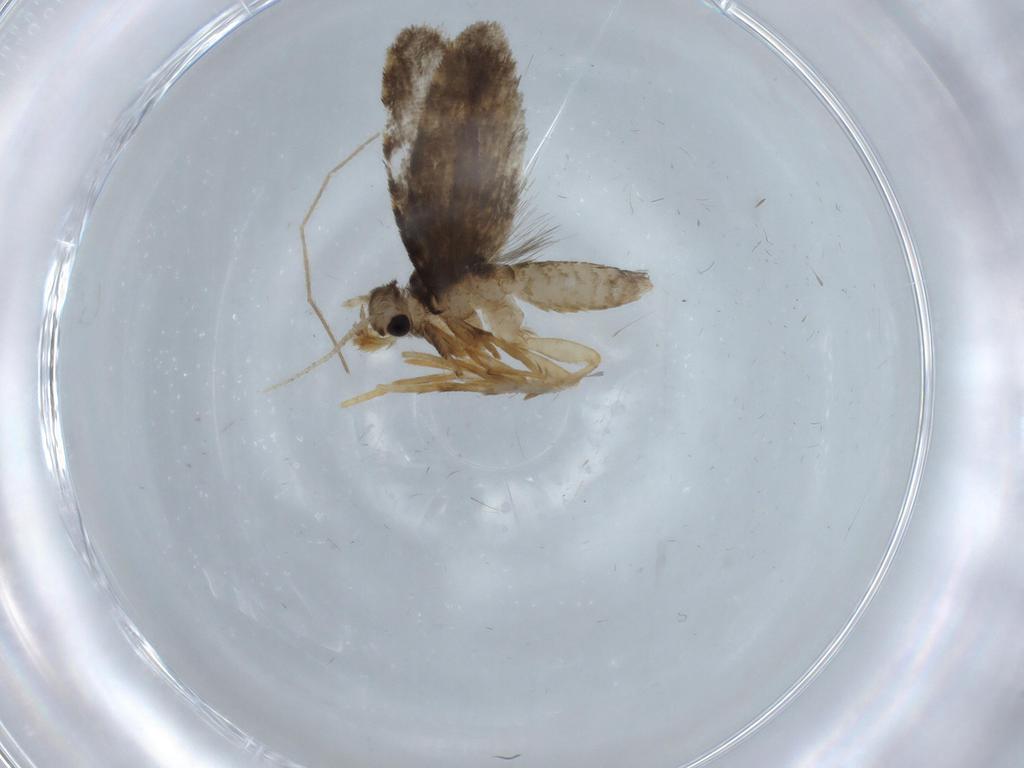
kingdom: Animalia
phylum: Arthropoda
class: Insecta
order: Lepidoptera
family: Psychidae
